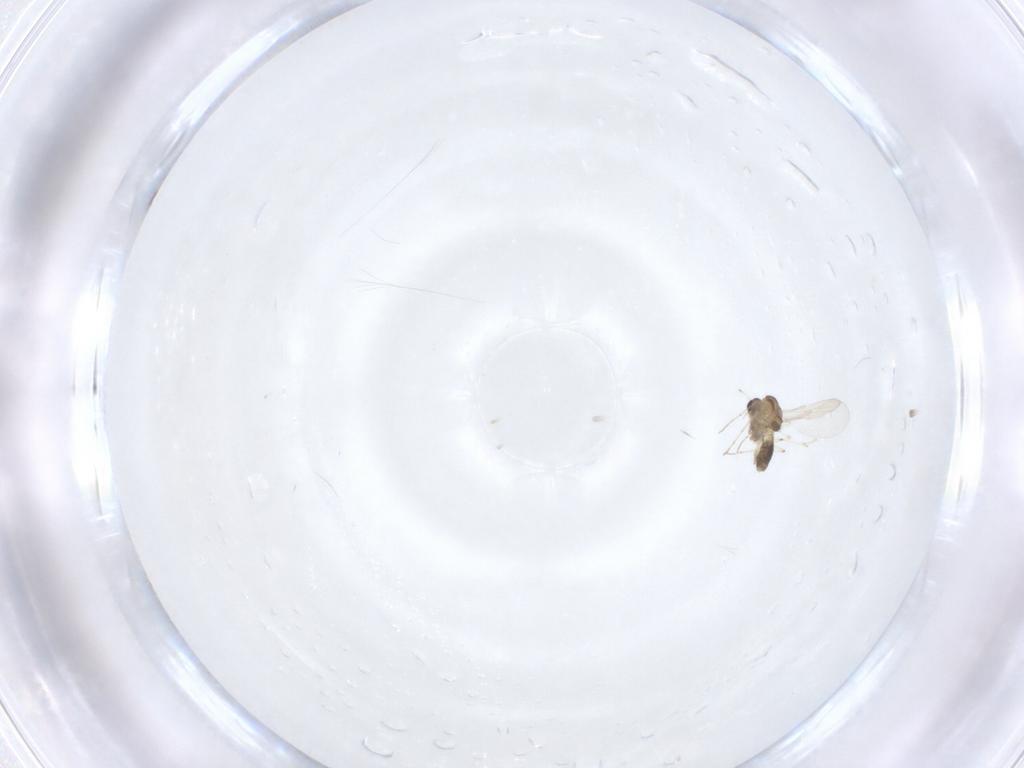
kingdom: Animalia
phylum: Arthropoda
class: Insecta
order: Diptera
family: Chironomidae
